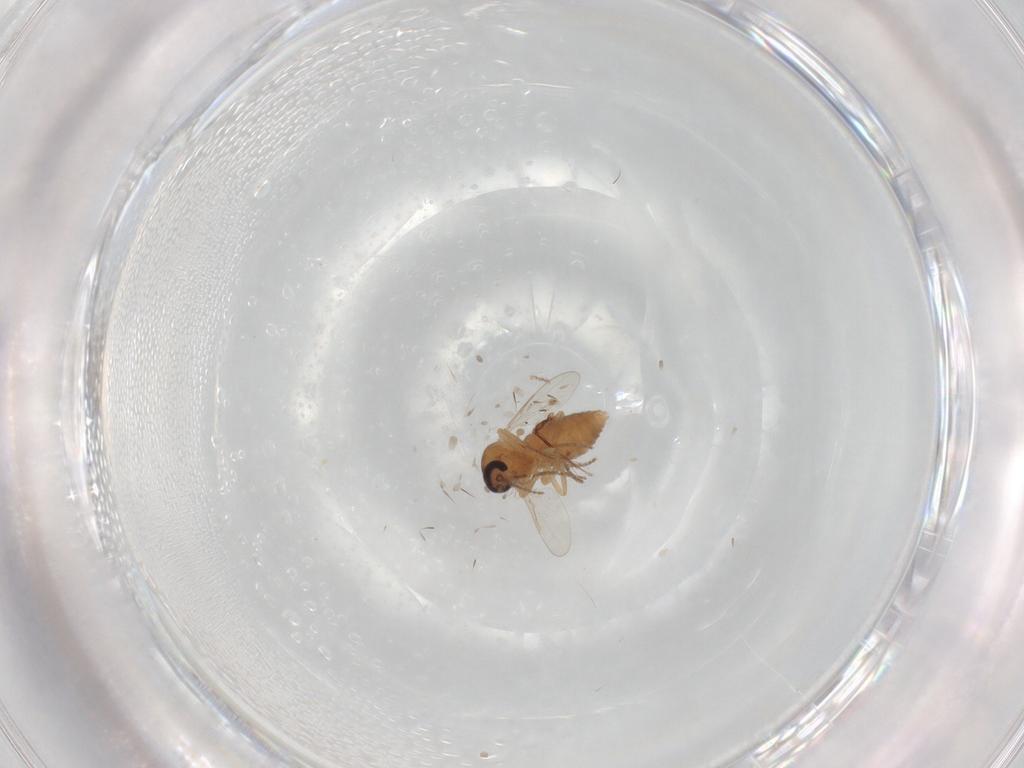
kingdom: Animalia
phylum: Arthropoda
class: Insecta
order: Diptera
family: Ceratopogonidae
